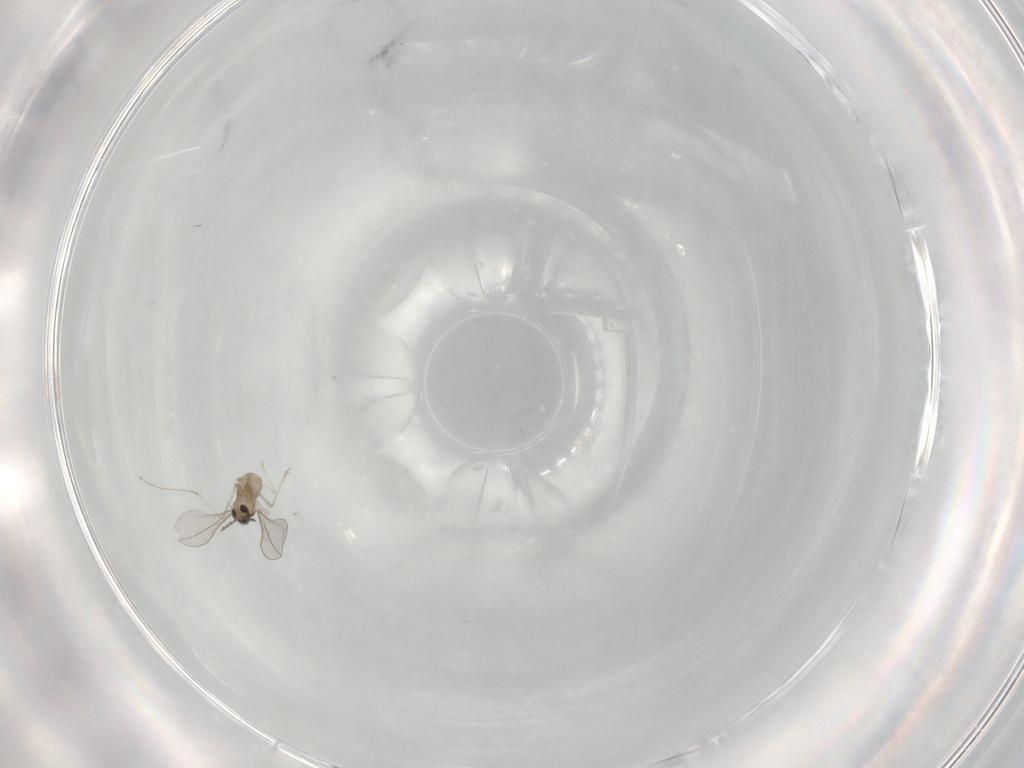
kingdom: Animalia
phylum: Arthropoda
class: Insecta
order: Diptera
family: Cecidomyiidae
